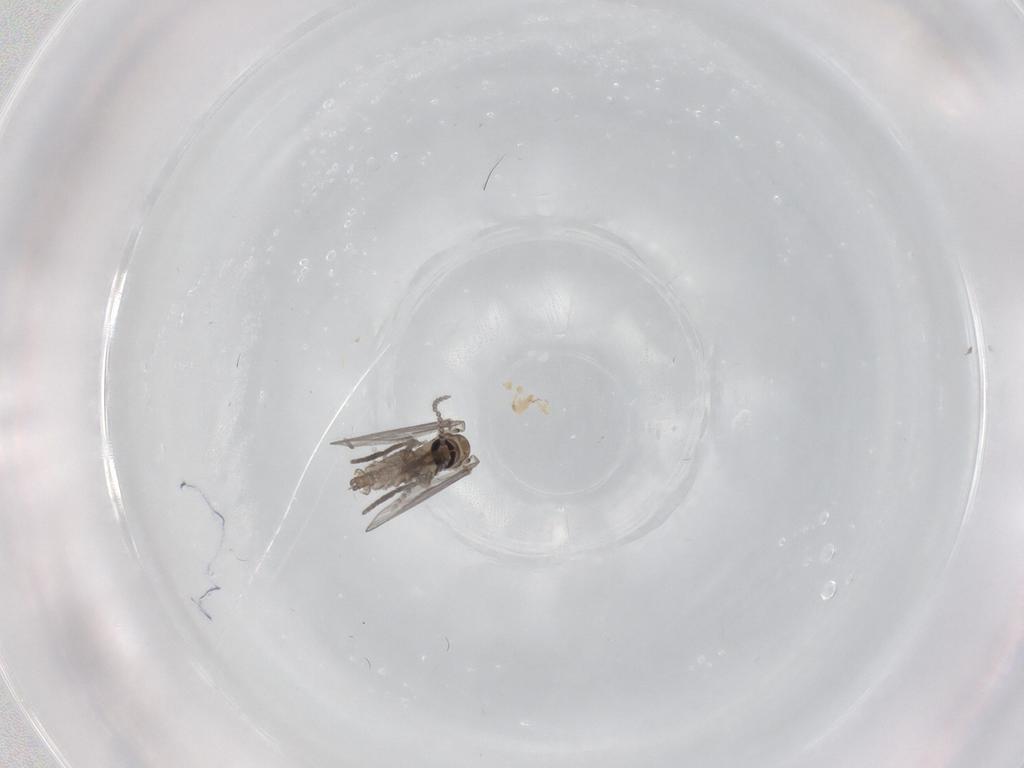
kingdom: Animalia
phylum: Arthropoda
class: Insecta
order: Diptera
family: Psychodidae
